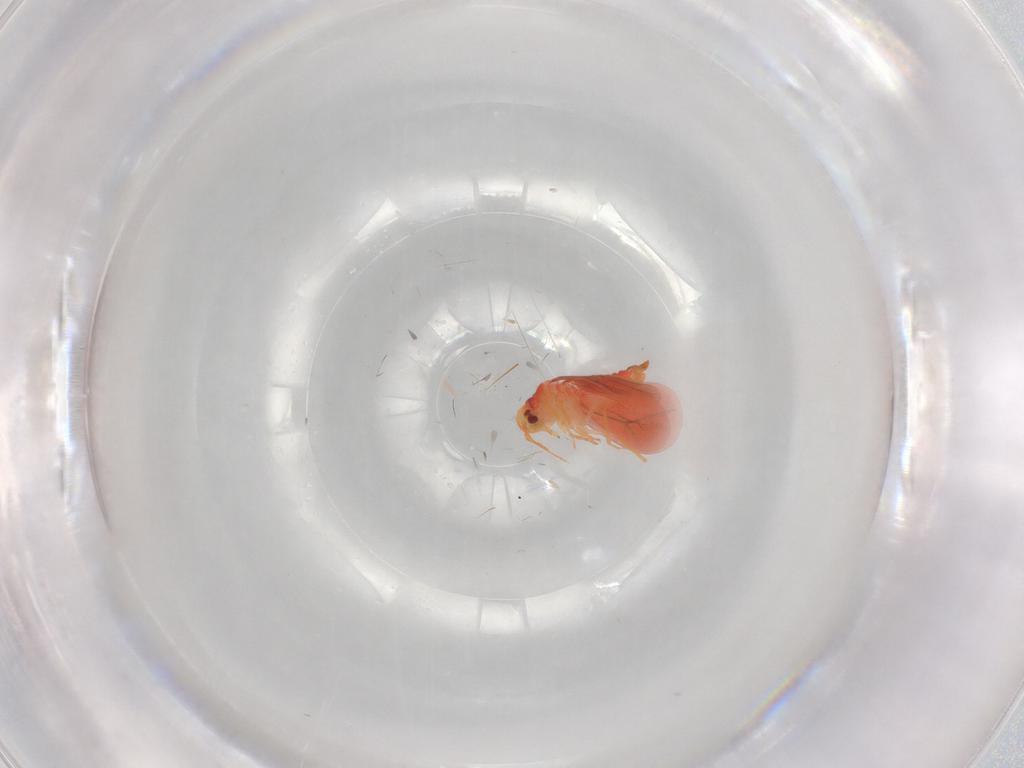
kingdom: Animalia
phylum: Arthropoda
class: Insecta
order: Hemiptera
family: Aleyrodidae
